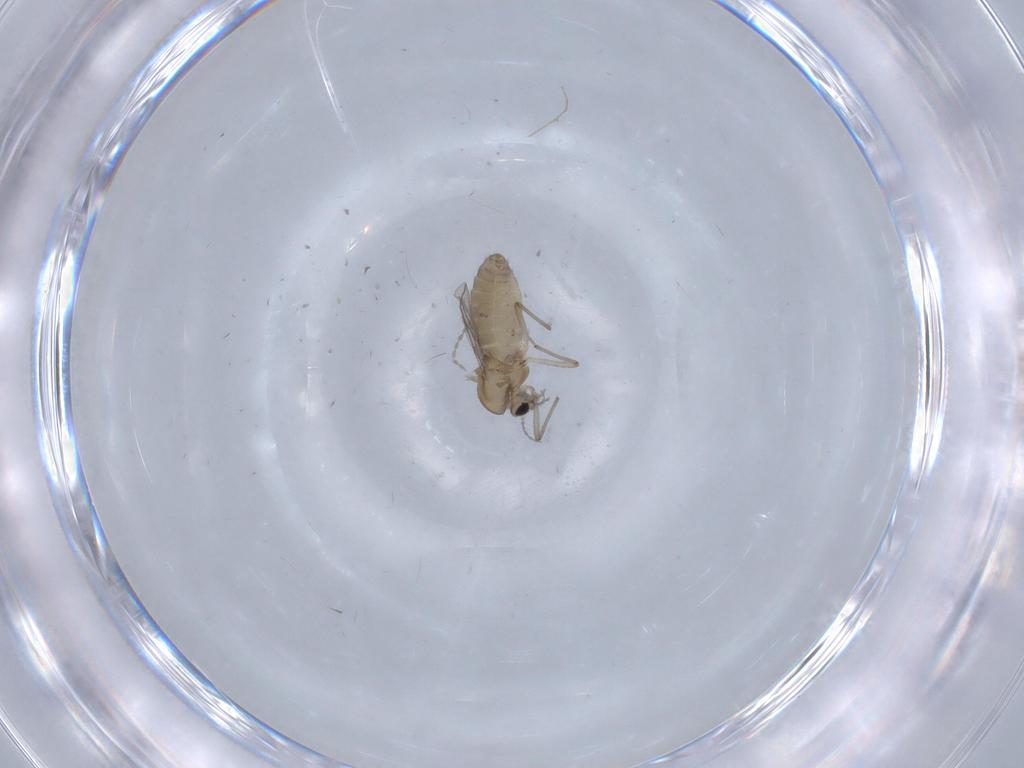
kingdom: Animalia
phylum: Arthropoda
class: Insecta
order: Diptera
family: Chironomidae
